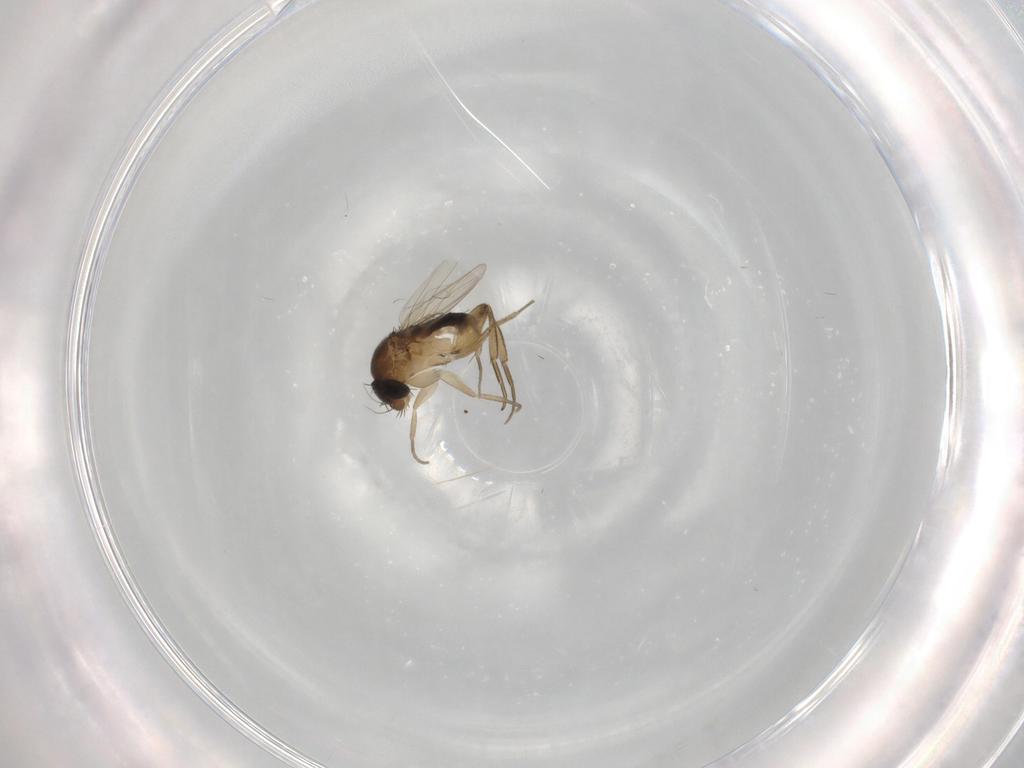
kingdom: Animalia
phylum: Arthropoda
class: Insecta
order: Diptera
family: Phoridae
